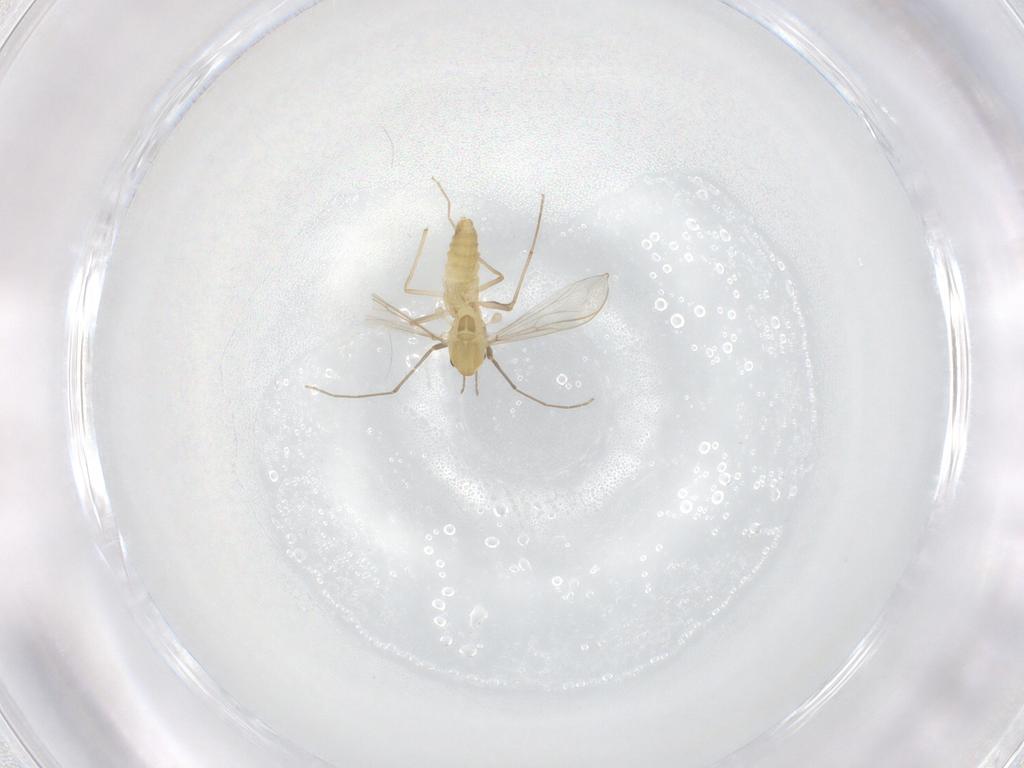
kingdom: Animalia
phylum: Arthropoda
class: Insecta
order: Diptera
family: Chironomidae
